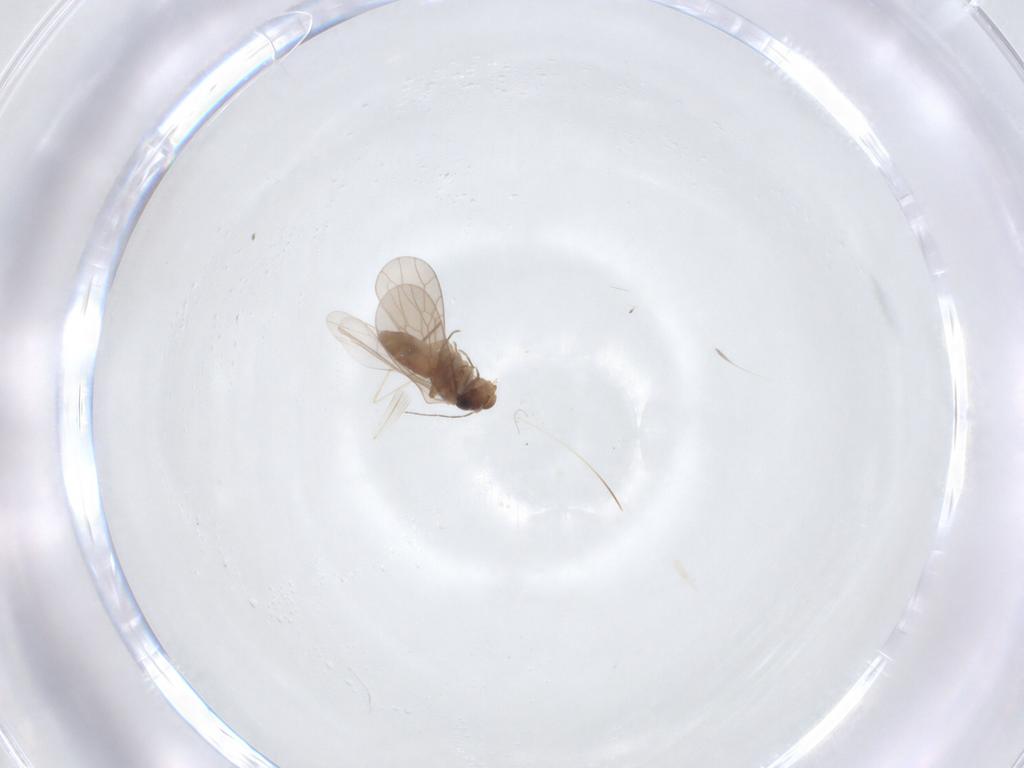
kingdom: Animalia
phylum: Arthropoda
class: Insecta
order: Psocodea
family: Lepidopsocidae
